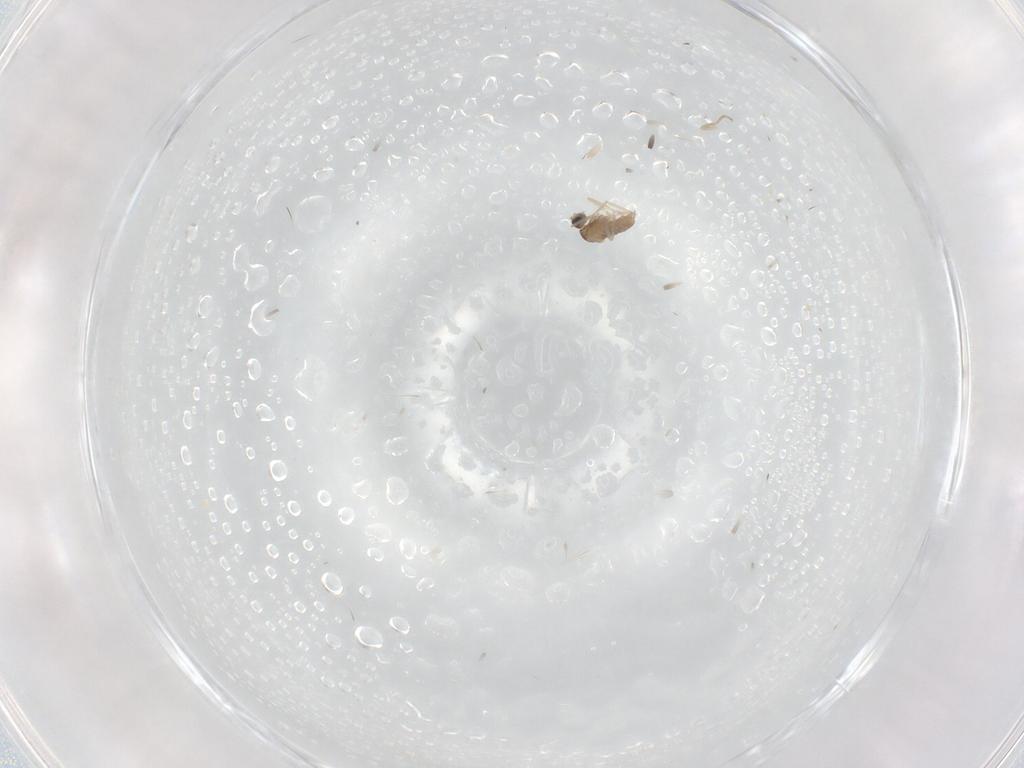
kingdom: Animalia
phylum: Arthropoda
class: Insecta
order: Diptera
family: Cecidomyiidae
